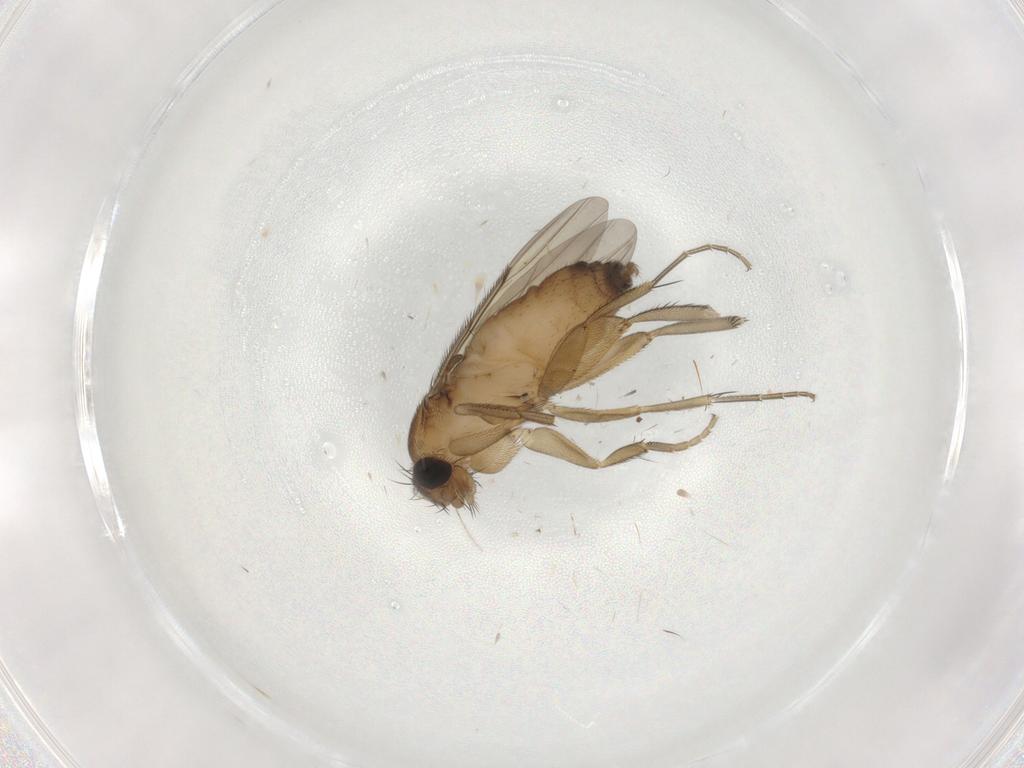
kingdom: Animalia
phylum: Arthropoda
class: Insecta
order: Diptera
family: Phoridae
